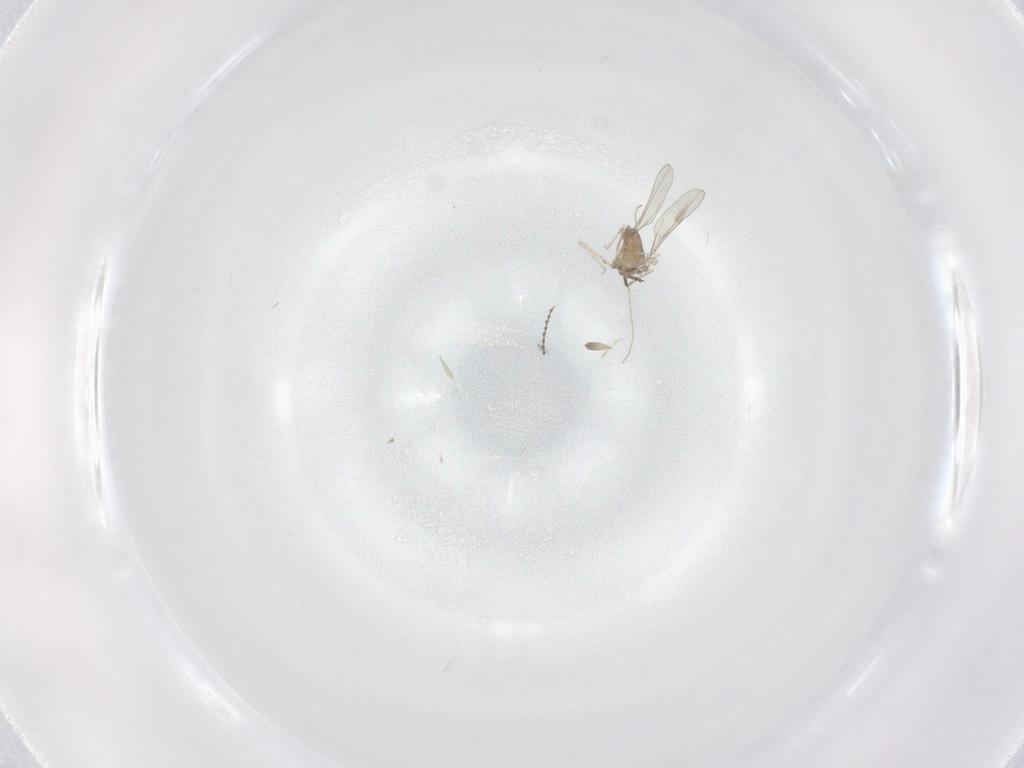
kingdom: Animalia
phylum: Arthropoda
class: Insecta
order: Diptera
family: Cecidomyiidae
